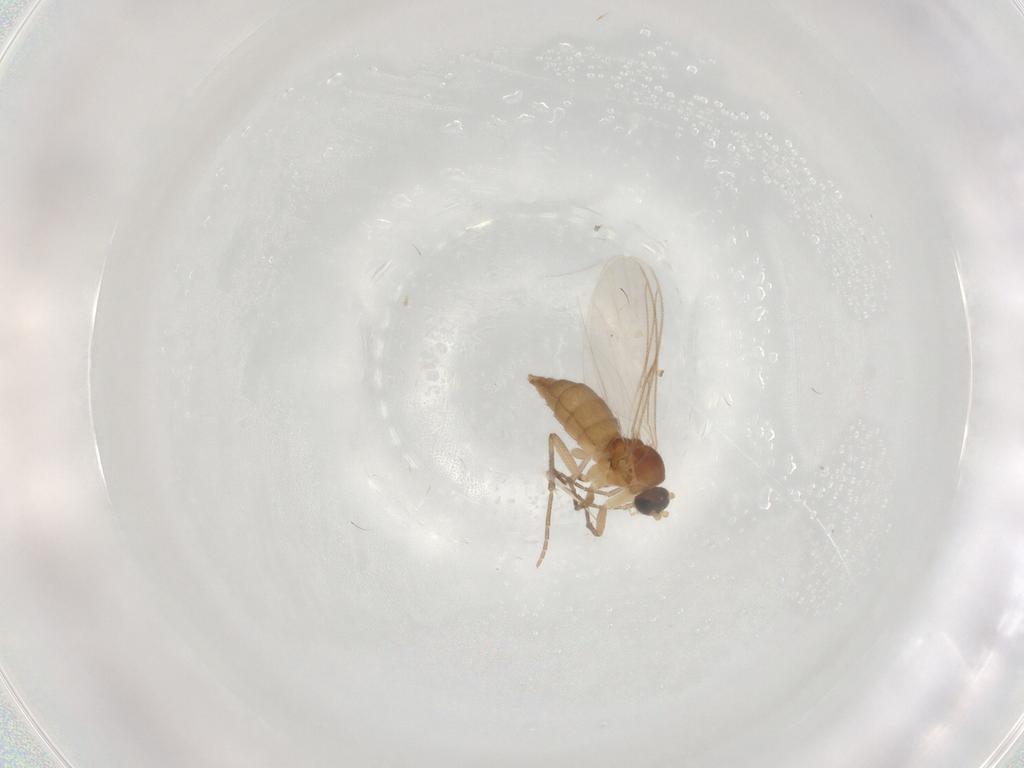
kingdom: Animalia
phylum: Arthropoda
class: Insecta
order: Diptera
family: Sciaridae
